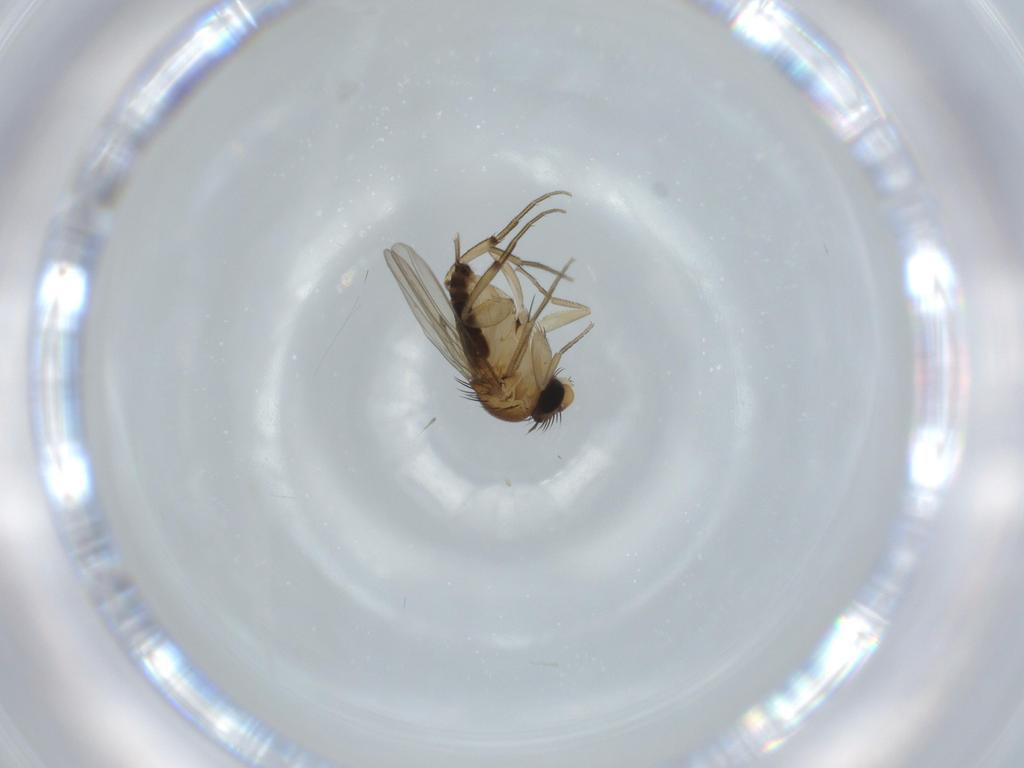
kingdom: Animalia
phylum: Arthropoda
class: Insecta
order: Diptera
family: Phoridae
